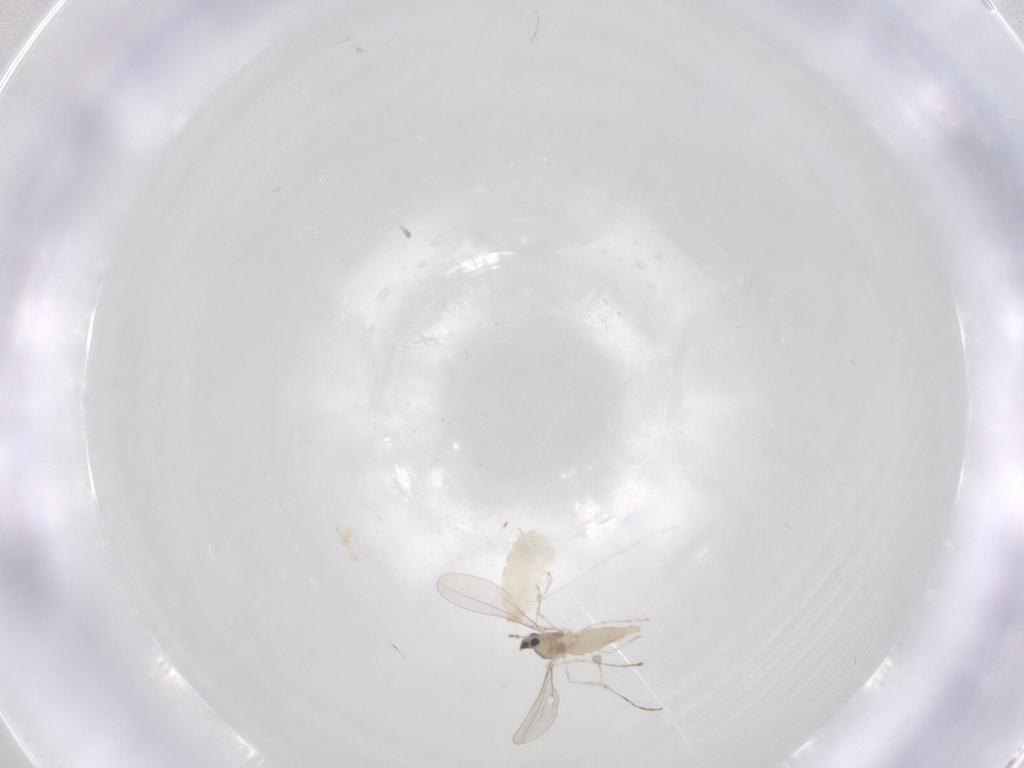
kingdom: Animalia
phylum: Arthropoda
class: Insecta
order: Diptera
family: Cecidomyiidae
